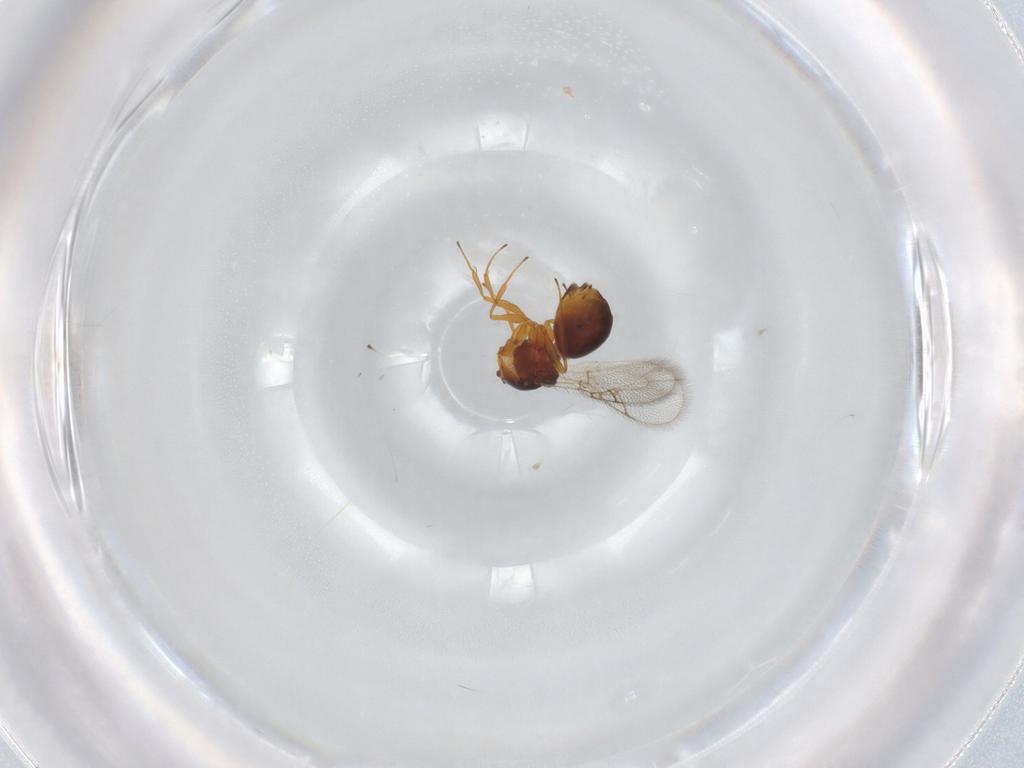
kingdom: Animalia
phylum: Arthropoda
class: Insecta
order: Hymenoptera
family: Figitidae
